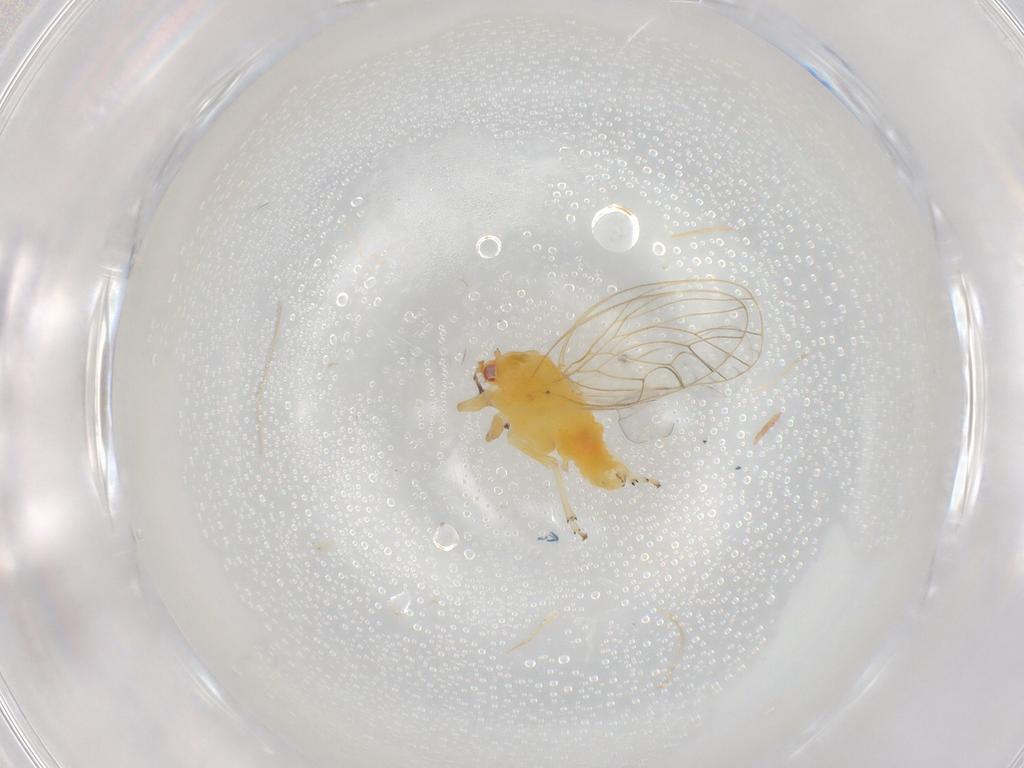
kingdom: Animalia
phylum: Arthropoda
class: Insecta
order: Hemiptera
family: Psyllidae
